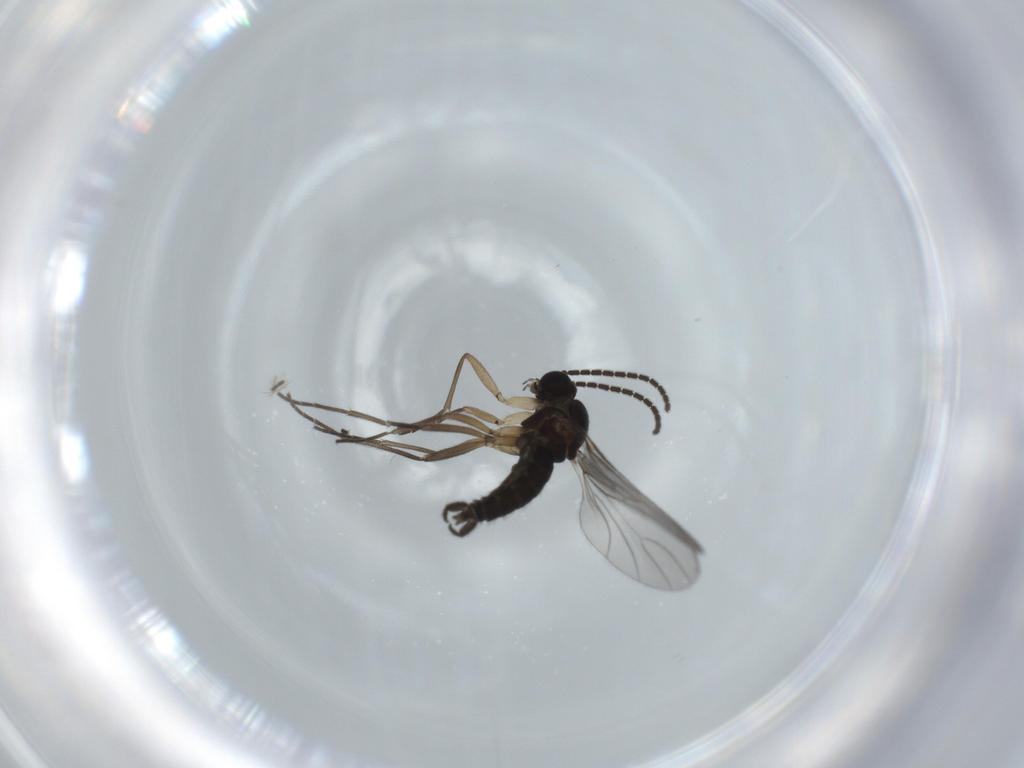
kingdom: Animalia
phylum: Arthropoda
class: Insecta
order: Diptera
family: Sciaridae
